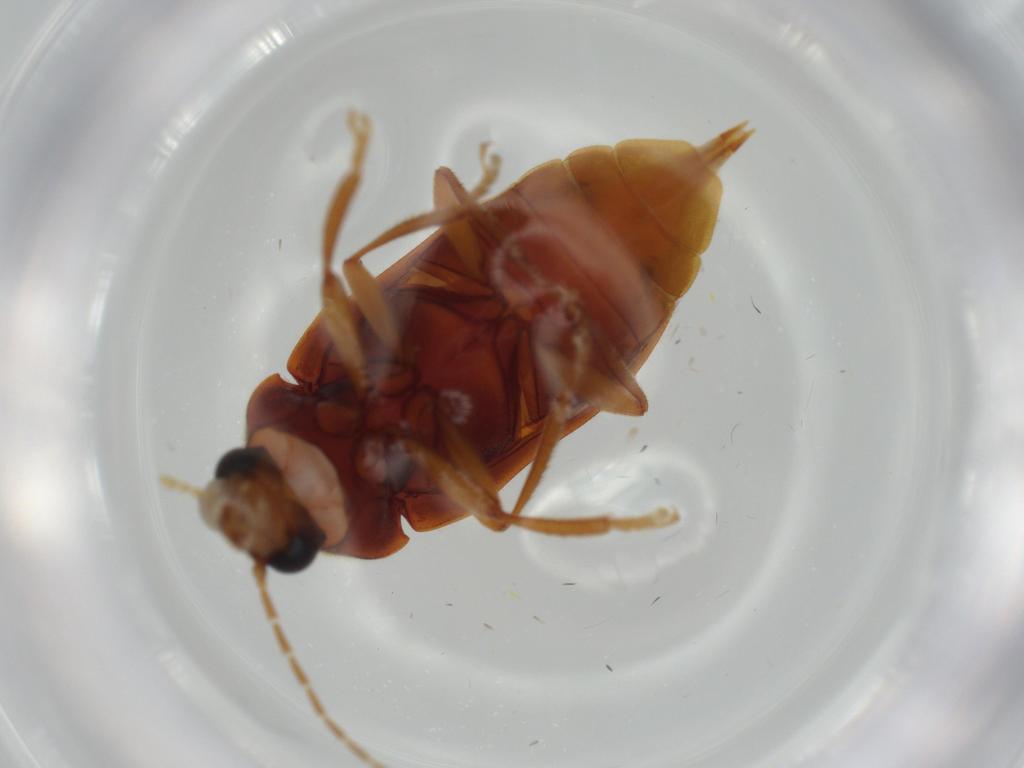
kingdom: Animalia
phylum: Arthropoda
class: Insecta
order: Coleoptera
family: Ptilodactylidae
